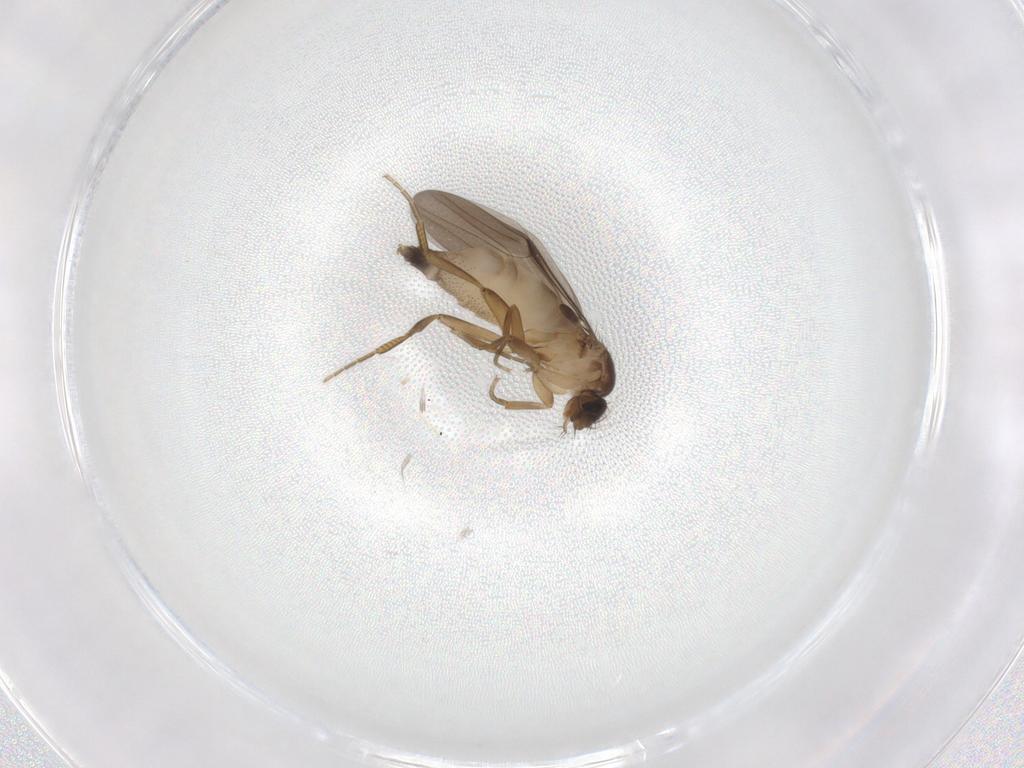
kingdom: Animalia
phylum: Arthropoda
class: Insecta
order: Diptera
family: Phoridae
